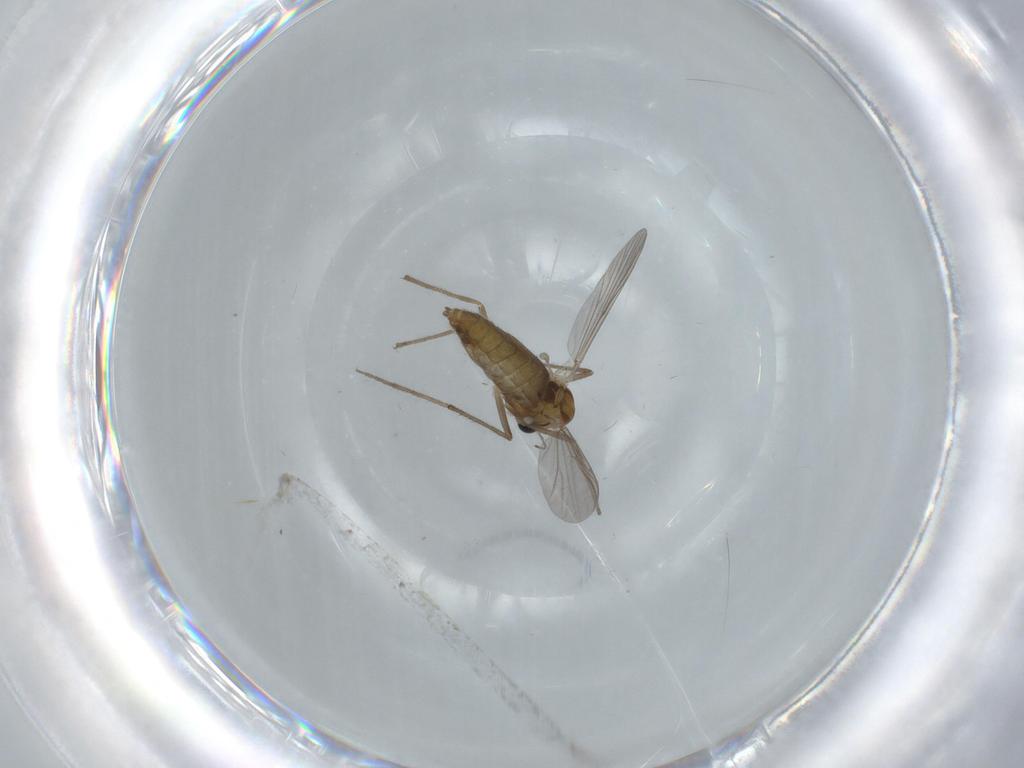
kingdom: Animalia
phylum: Arthropoda
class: Insecta
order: Diptera
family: Chironomidae
